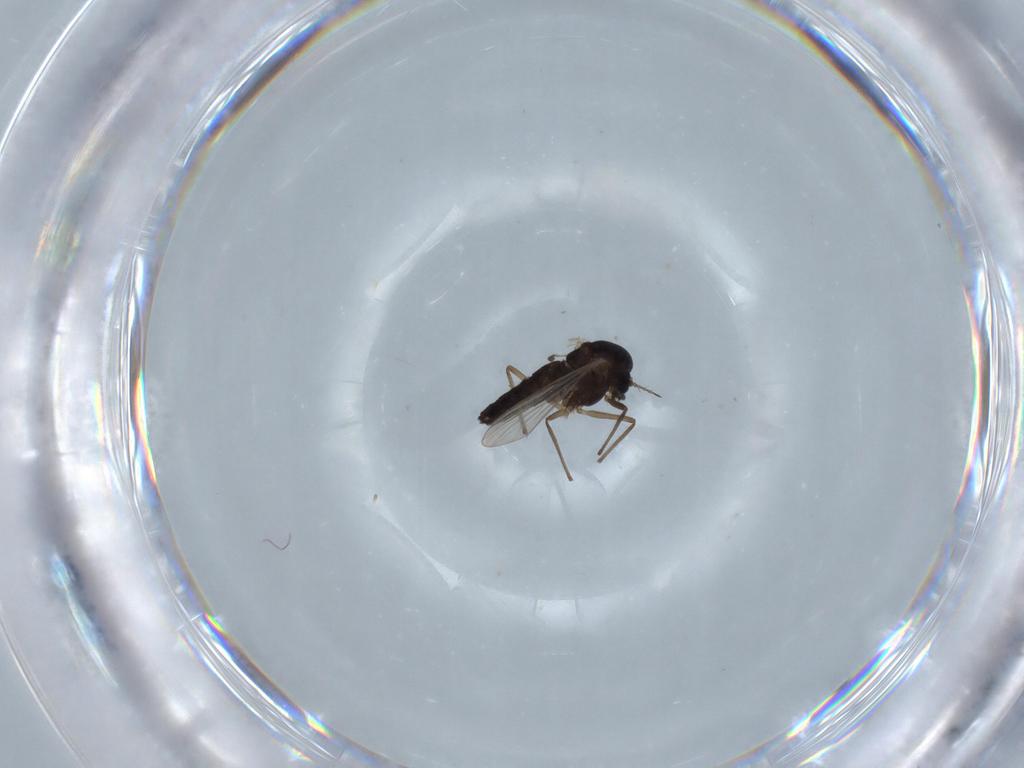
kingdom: Animalia
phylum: Arthropoda
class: Insecta
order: Diptera
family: Chironomidae
